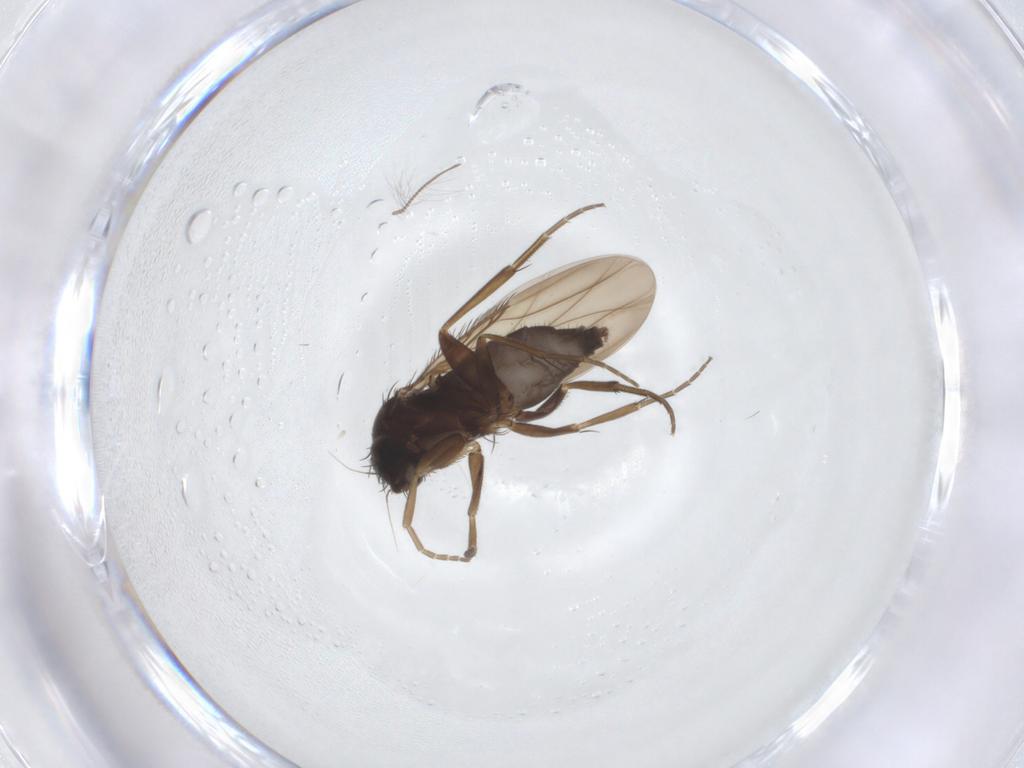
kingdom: Animalia
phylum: Arthropoda
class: Insecta
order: Diptera
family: Phoridae
